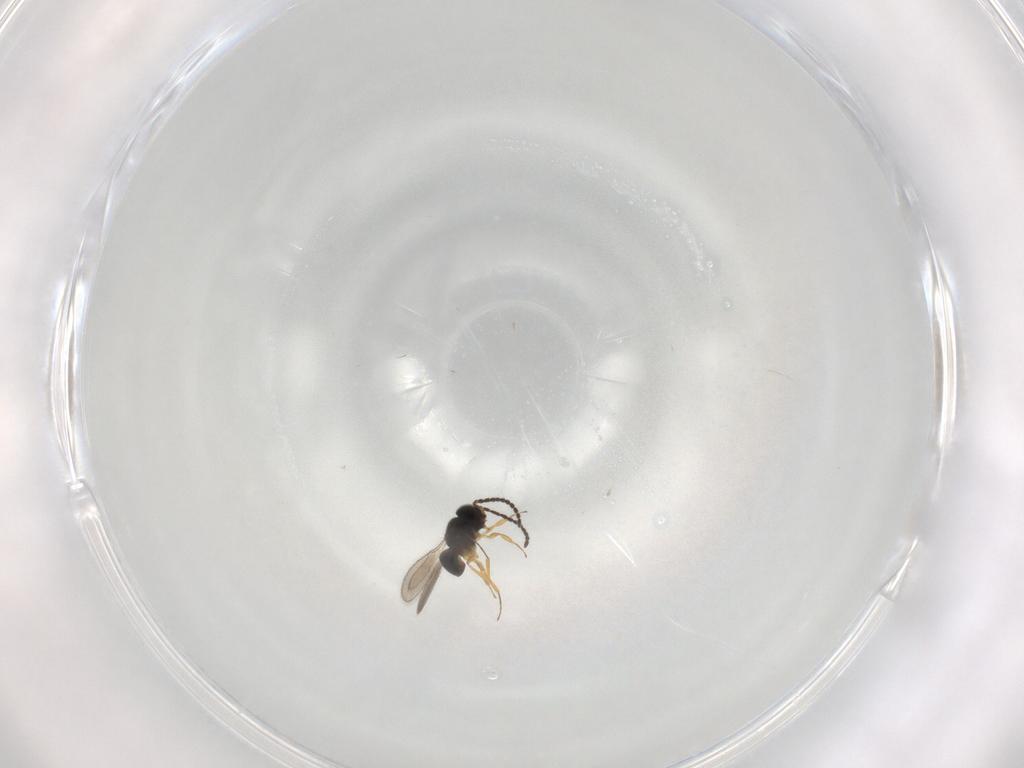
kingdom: Animalia
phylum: Arthropoda
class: Insecta
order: Hymenoptera
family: Scelionidae
